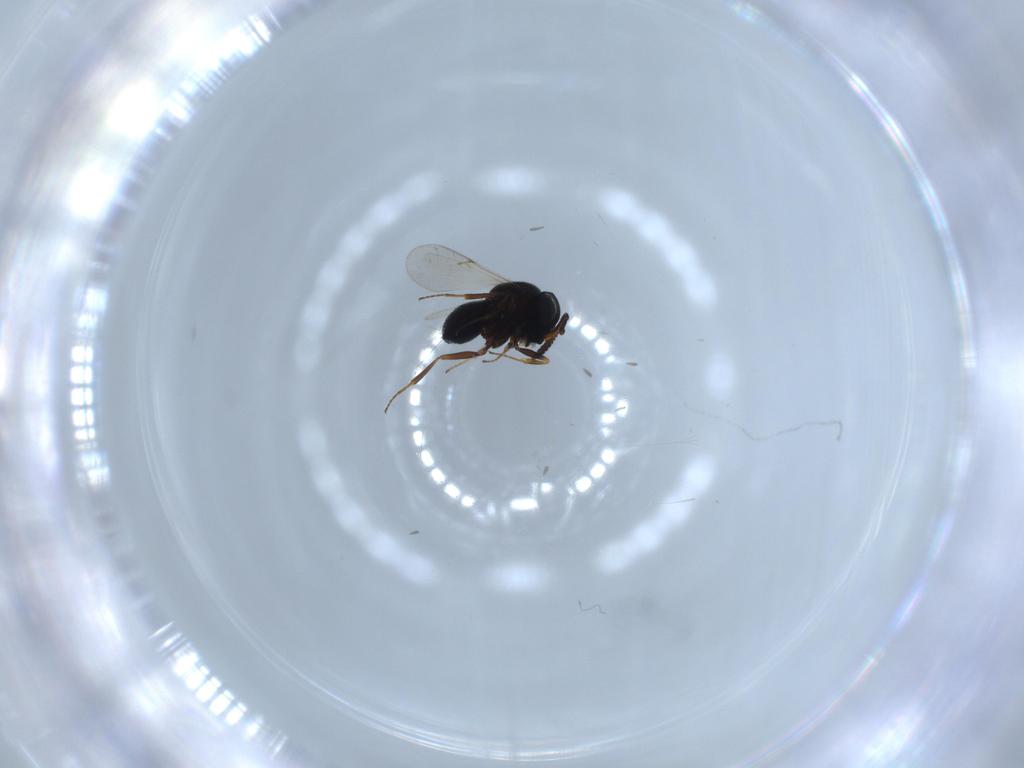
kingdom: Animalia
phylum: Arthropoda
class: Insecta
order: Hymenoptera
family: Scelionidae
